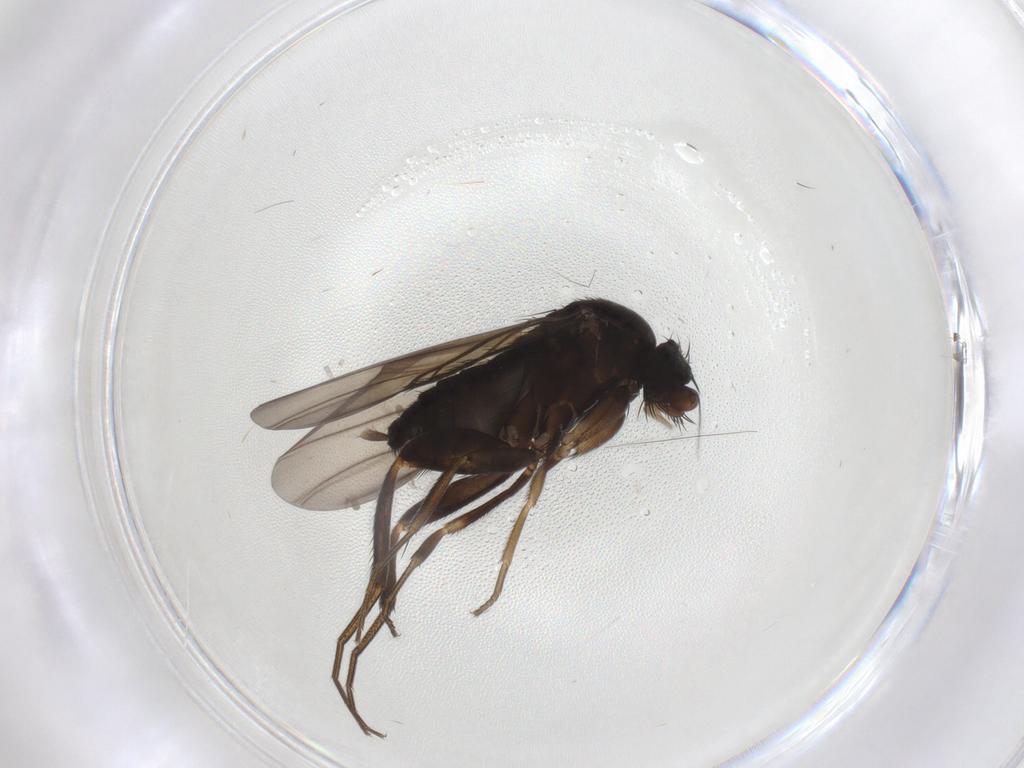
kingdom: Animalia
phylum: Arthropoda
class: Insecta
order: Diptera
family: Phoridae
